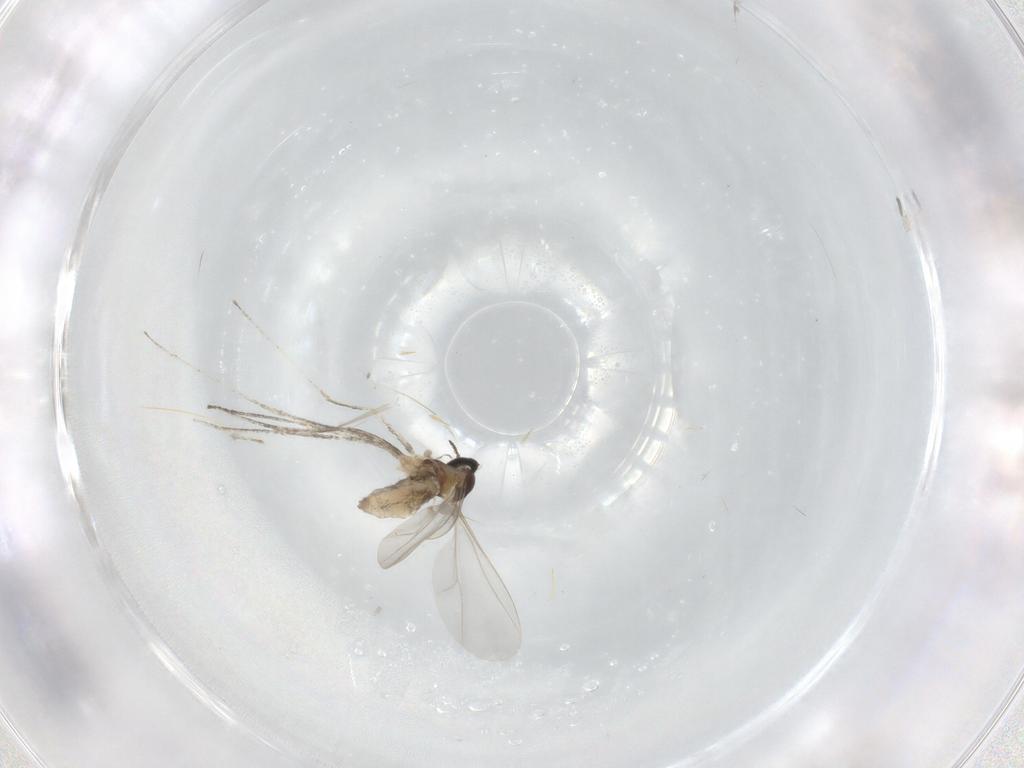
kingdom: Animalia
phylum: Arthropoda
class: Insecta
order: Diptera
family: Cecidomyiidae
